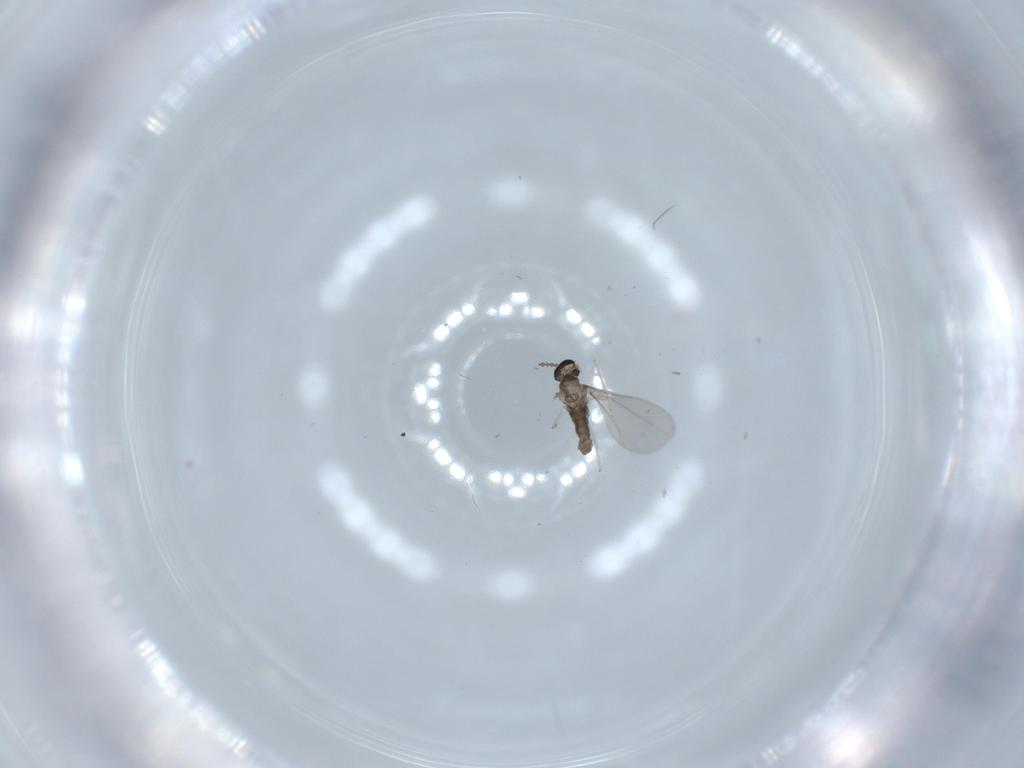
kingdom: Animalia
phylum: Arthropoda
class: Insecta
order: Diptera
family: Cecidomyiidae
